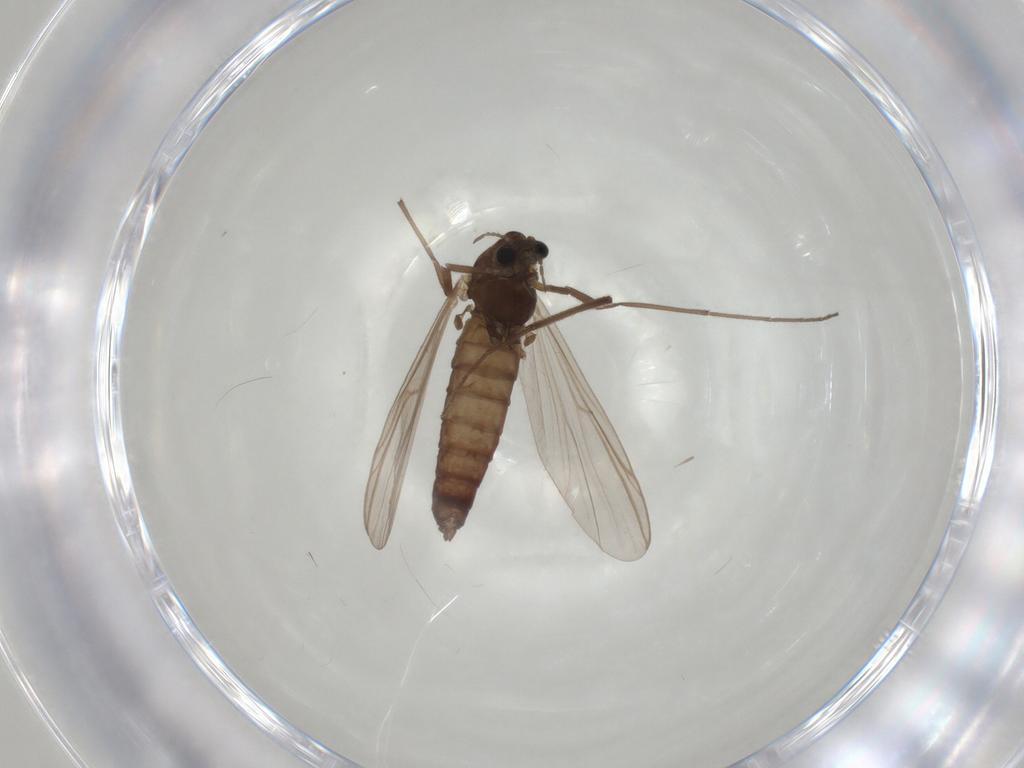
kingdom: Animalia
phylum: Arthropoda
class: Insecta
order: Diptera
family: Chironomidae
